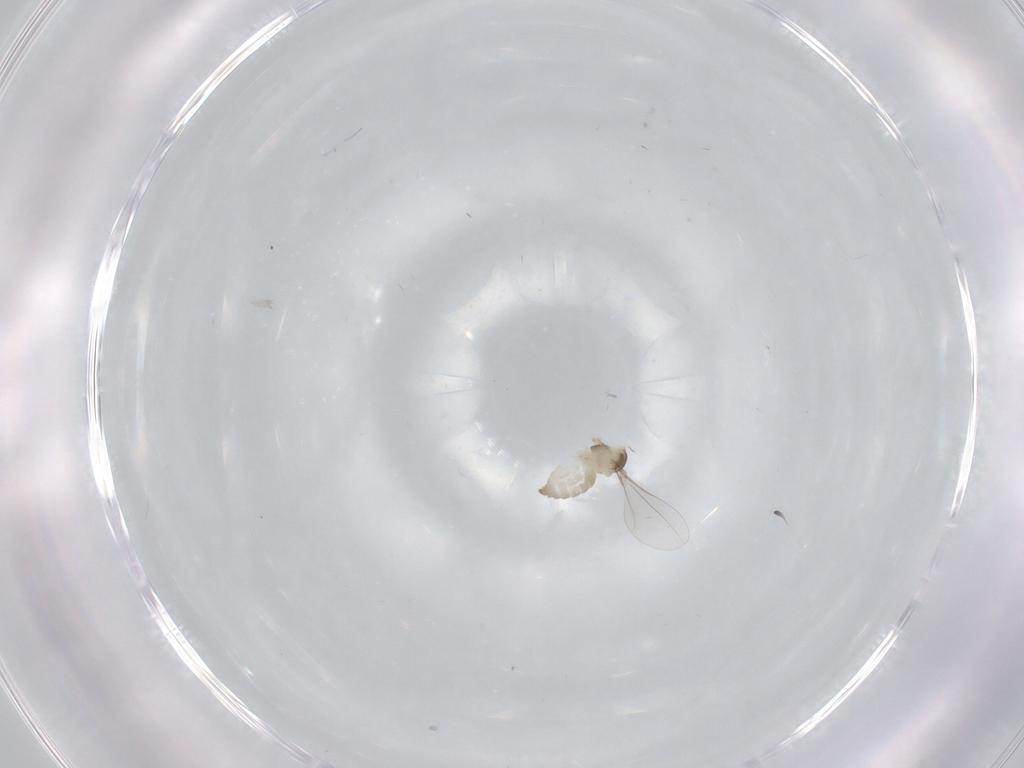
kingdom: Animalia
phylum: Arthropoda
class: Insecta
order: Diptera
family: Cecidomyiidae
